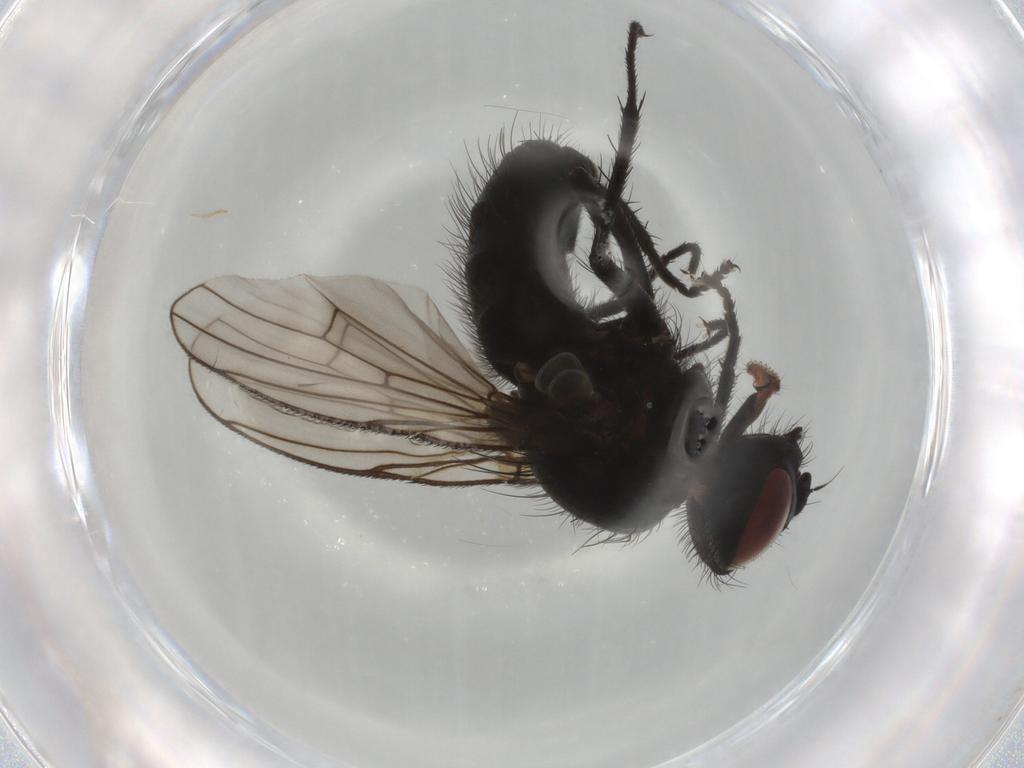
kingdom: Animalia
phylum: Arthropoda
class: Insecta
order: Diptera
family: Muscidae
